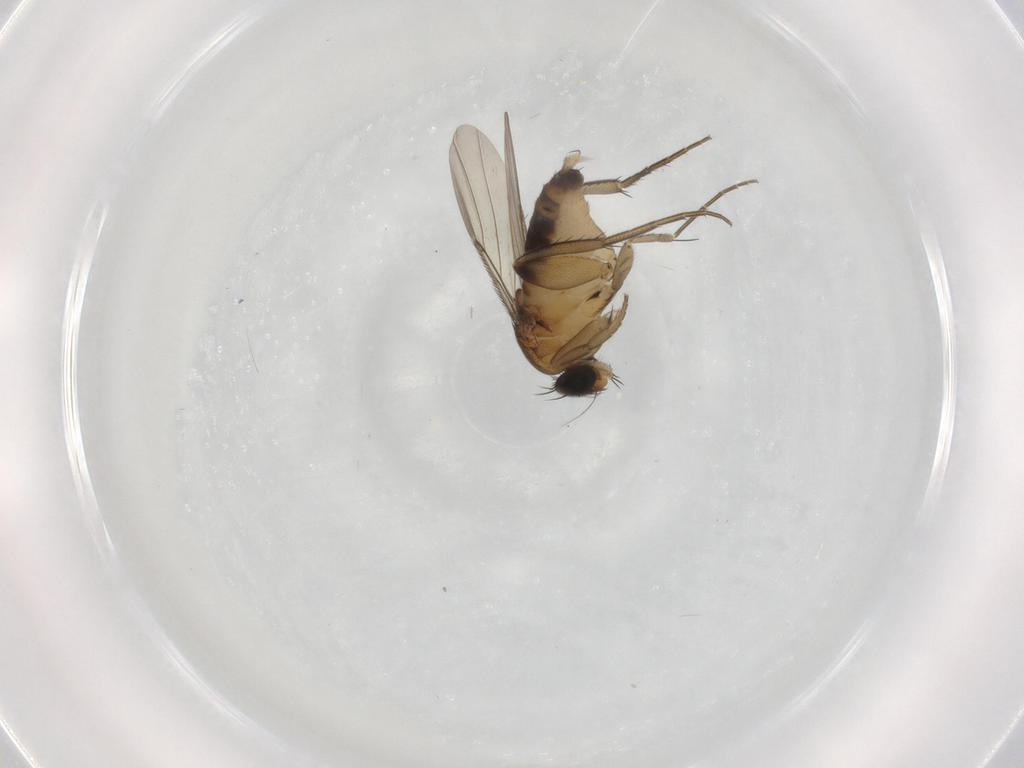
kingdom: Animalia
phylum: Arthropoda
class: Insecta
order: Diptera
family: Phoridae
